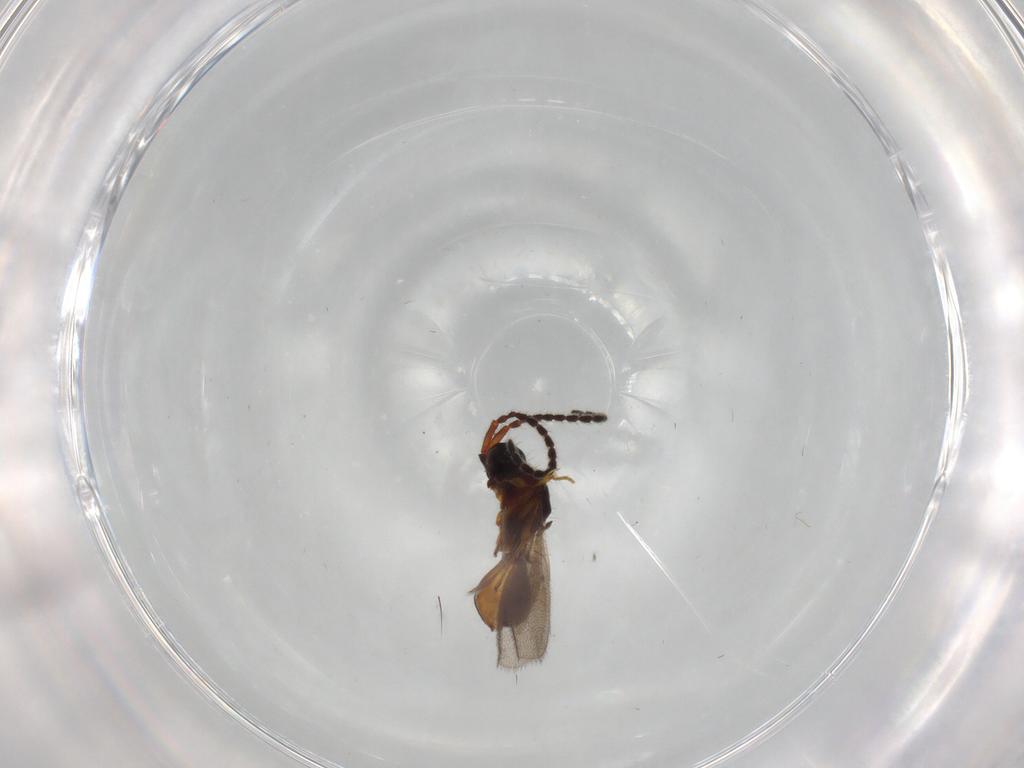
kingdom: Animalia
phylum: Arthropoda
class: Insecta
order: Hymenoptera
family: Diapriidae
